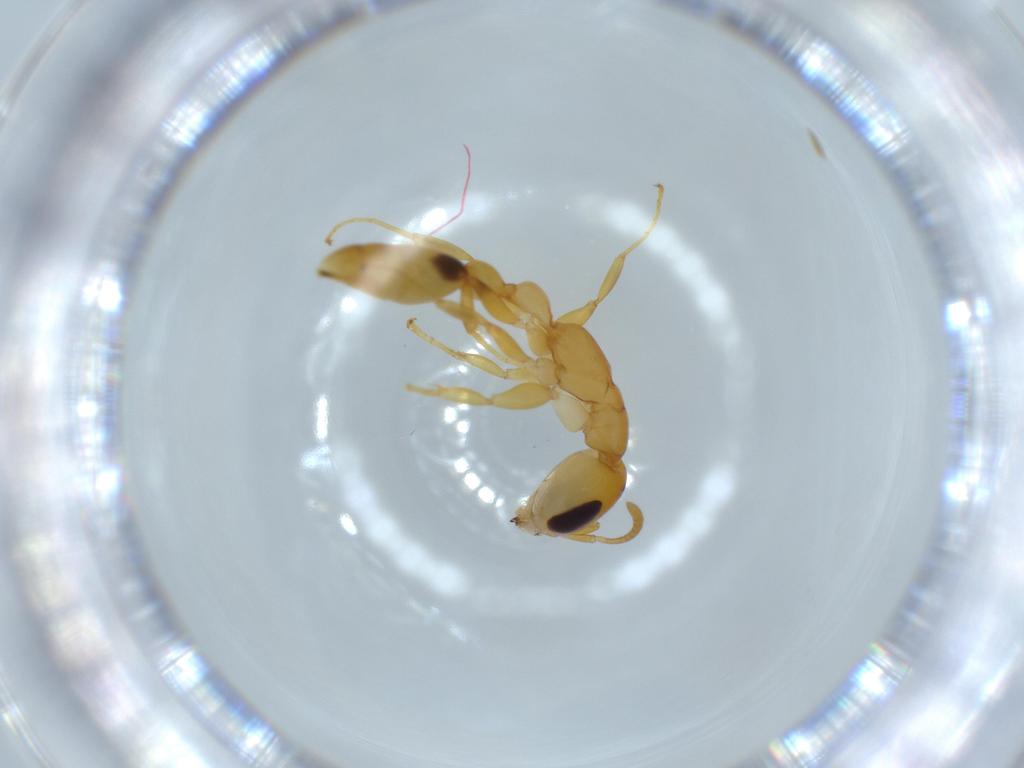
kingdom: Animalia
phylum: Arthropoda
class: Insecta
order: Hymenoptera
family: Formicidae
